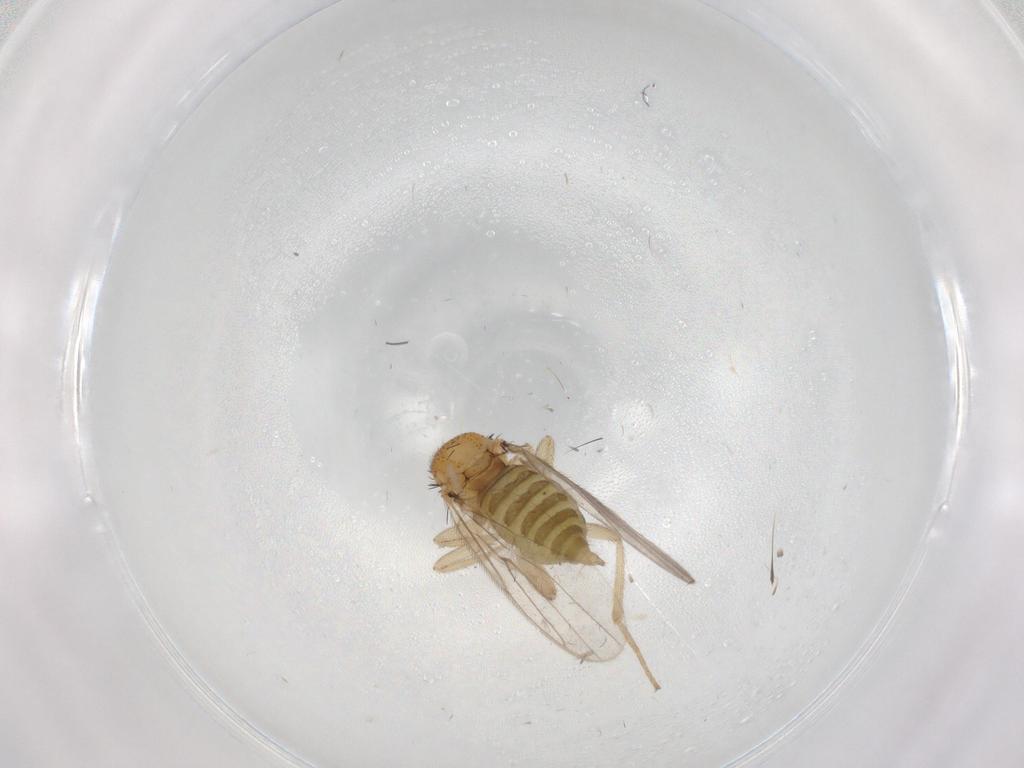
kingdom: Animalia
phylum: Arthropoda
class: Insecta
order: Diptera
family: Hybotidae
